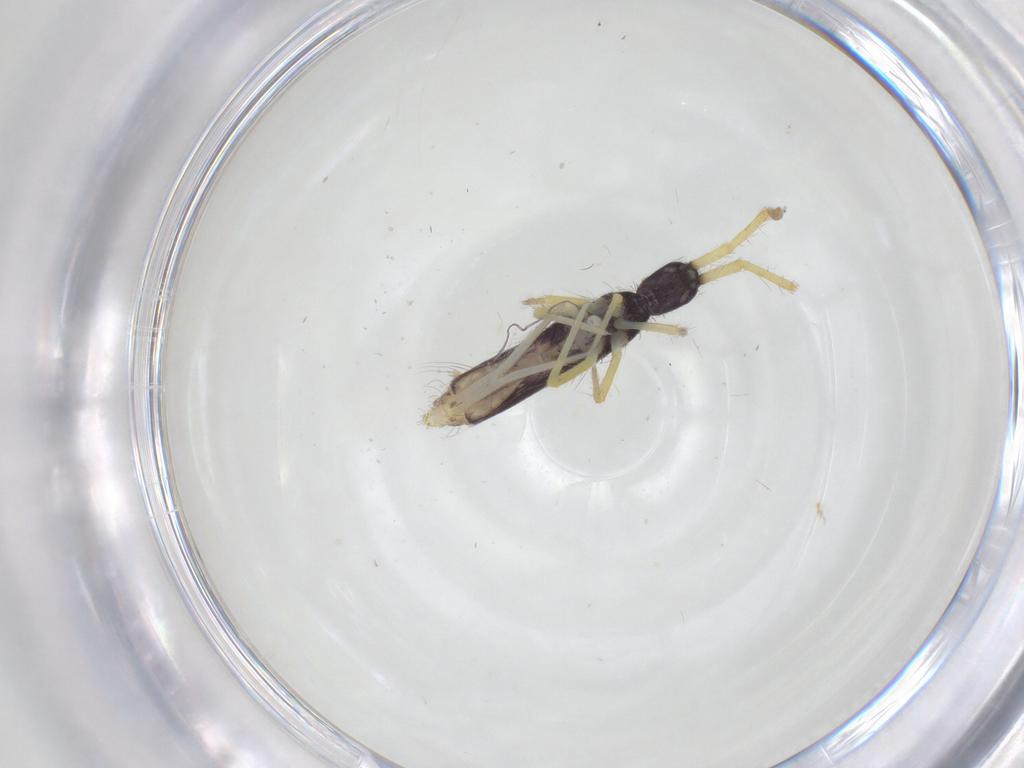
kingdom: Animalia
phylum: Arthropoda
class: Collembola
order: Entomobryomorpha
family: Entomobryidae
